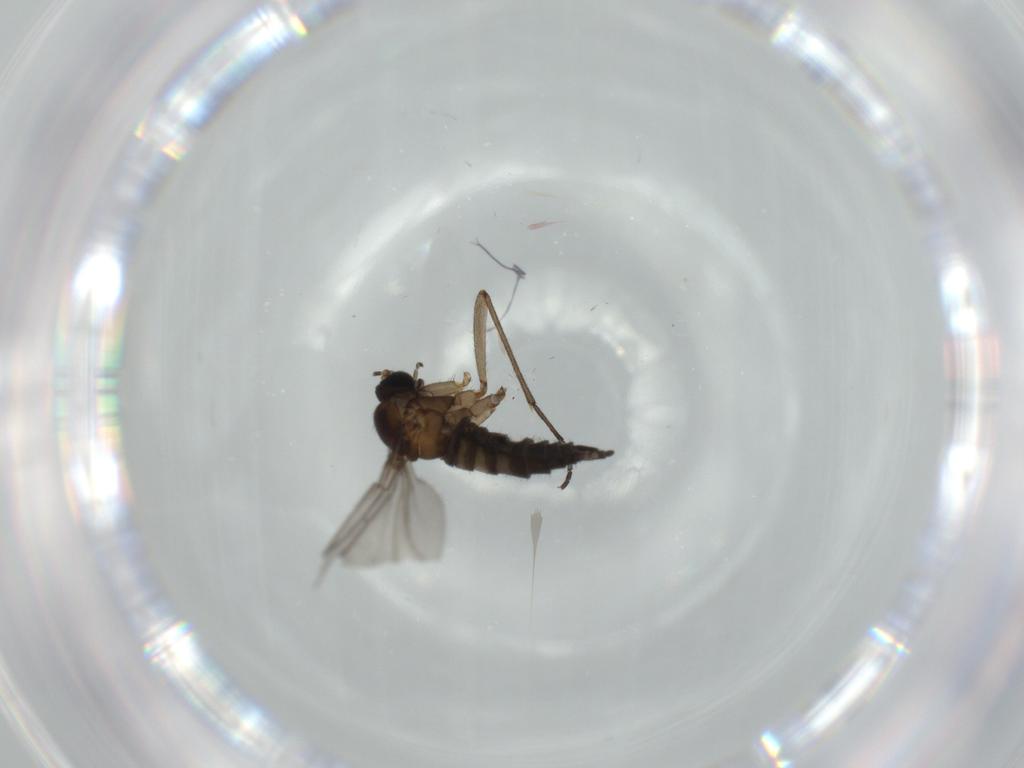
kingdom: Animalia
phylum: Arthropoda
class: Insecta
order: Diptera
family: Sciaridae
